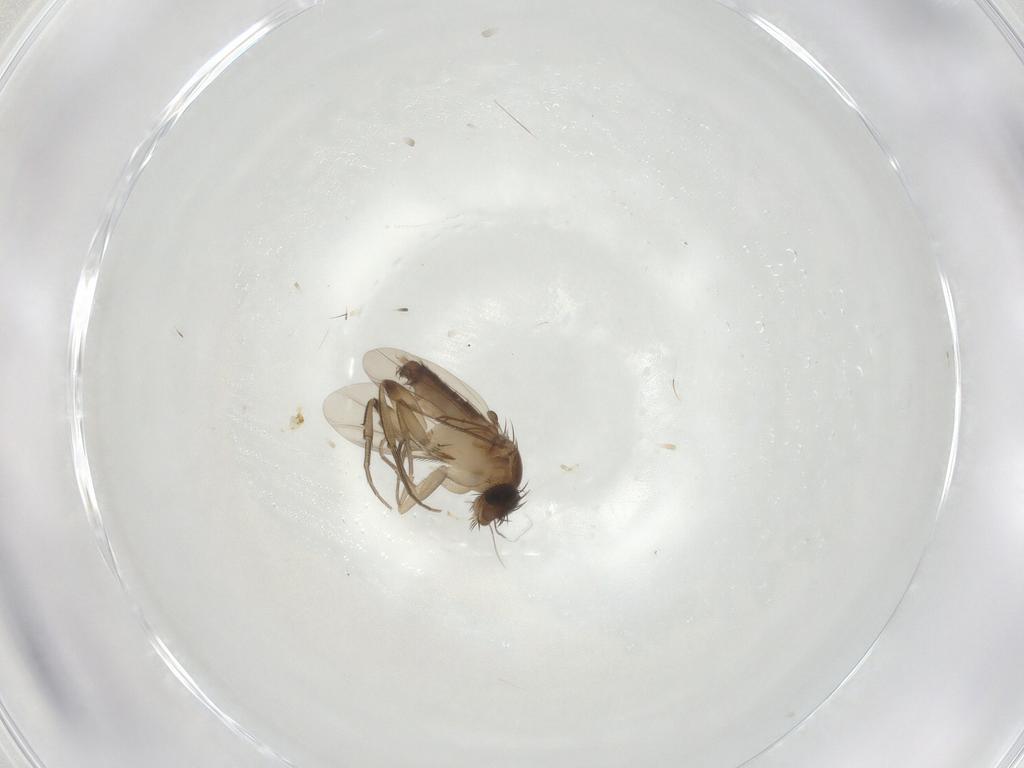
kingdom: Animalia
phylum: Arthropoda
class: Insecta
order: Diptera
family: Phoridae
